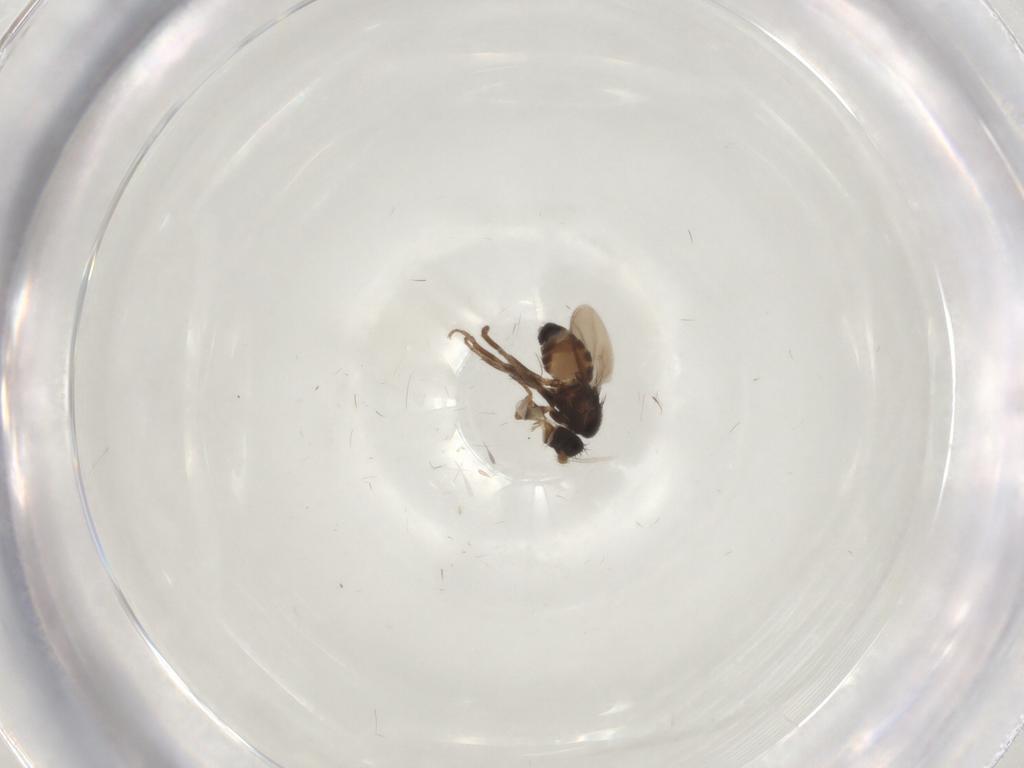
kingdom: Animalia
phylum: Arthropoda
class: Insecta
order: Diptera
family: Sphaeroceridae
